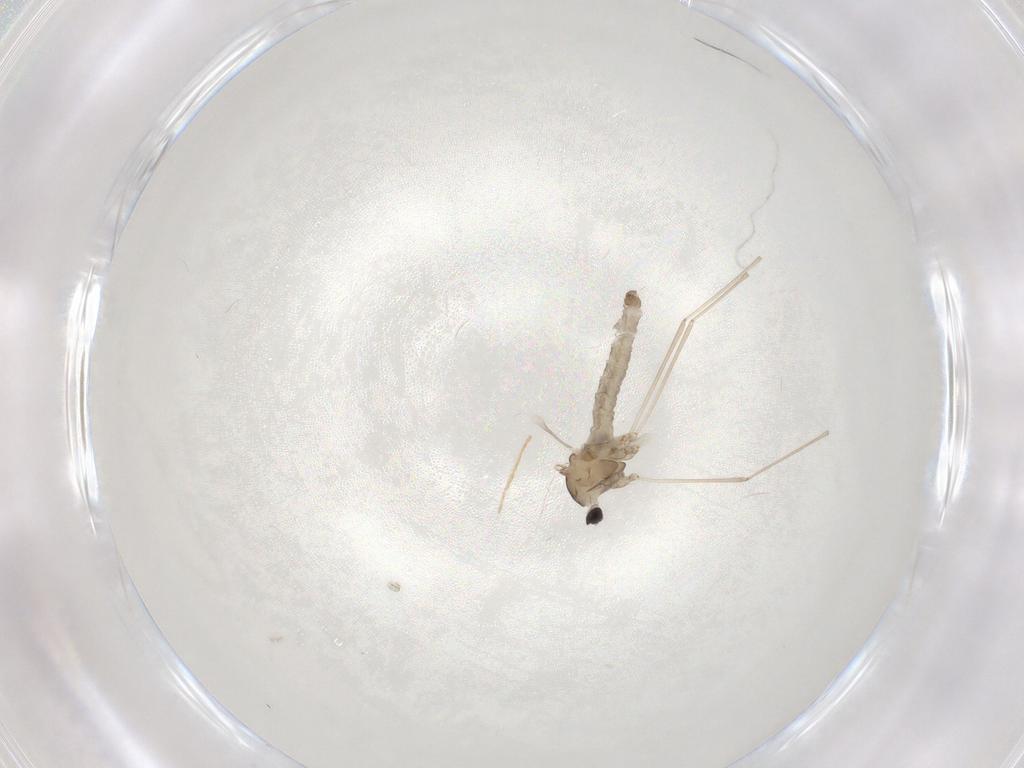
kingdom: Animalia
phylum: Arthropoda
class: Insecta
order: Diptera
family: Cecidomyiidae
